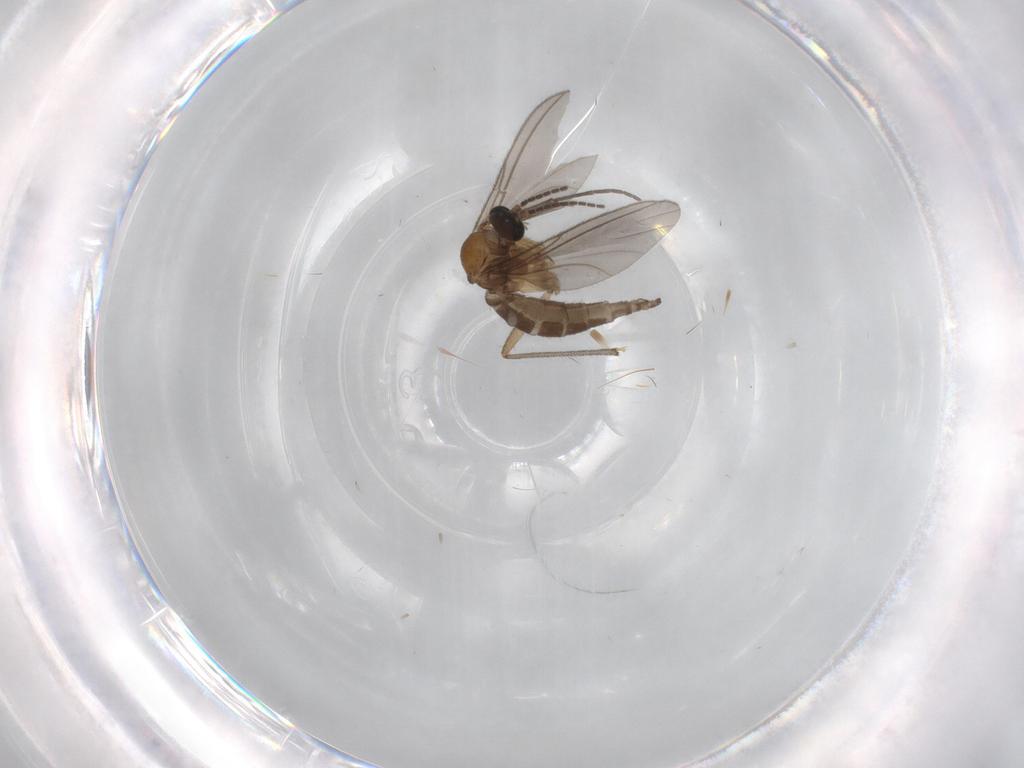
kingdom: Animalia
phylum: Arthropoda
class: Insecta
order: Diptera
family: Sciaridae
